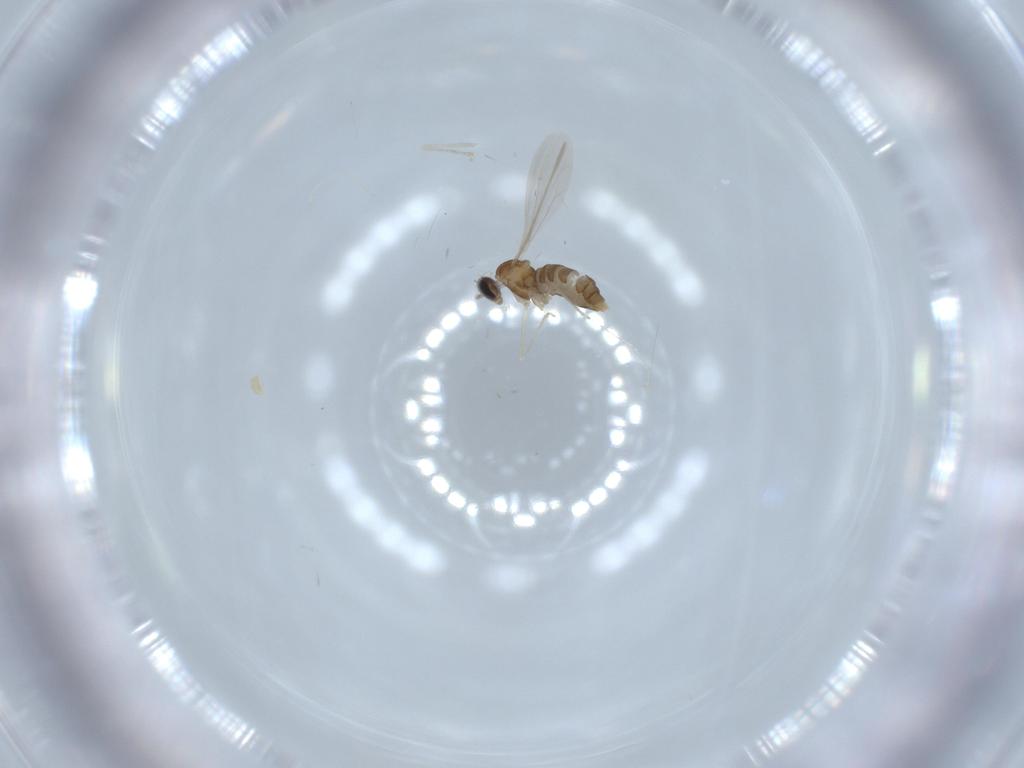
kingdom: Animalia
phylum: Arthropoda
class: Insecta
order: Diptera
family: Cecidomyiidae
